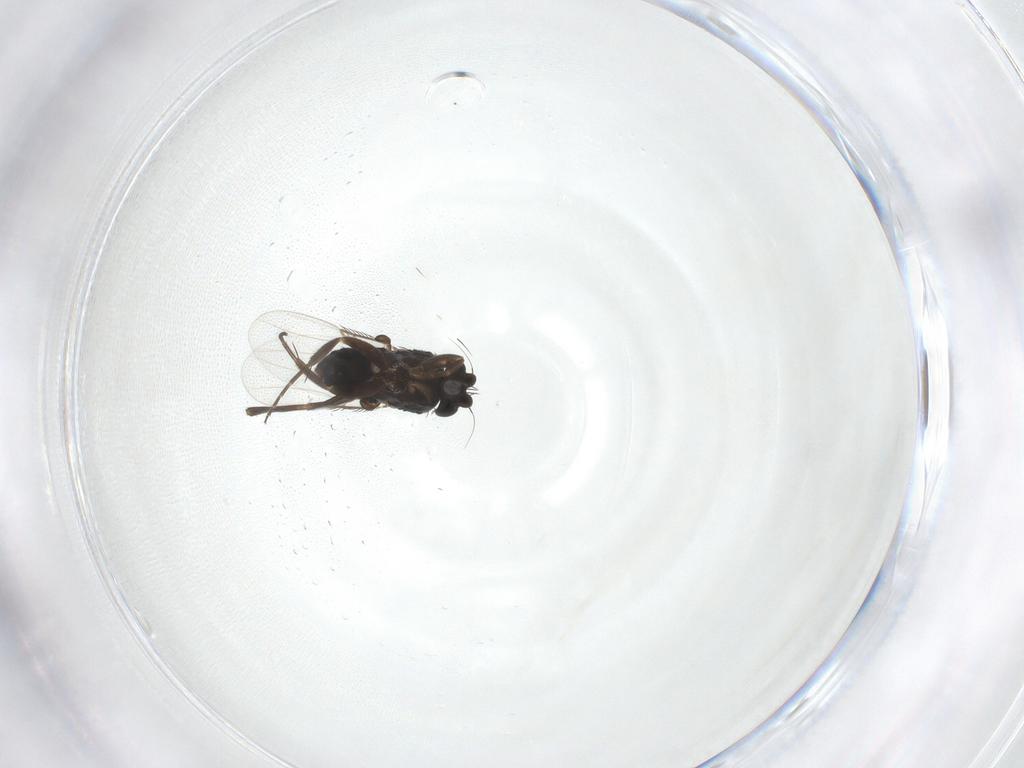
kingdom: Animalia
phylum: Arthropoda
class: Insecta
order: Diptera
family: Phoridae
